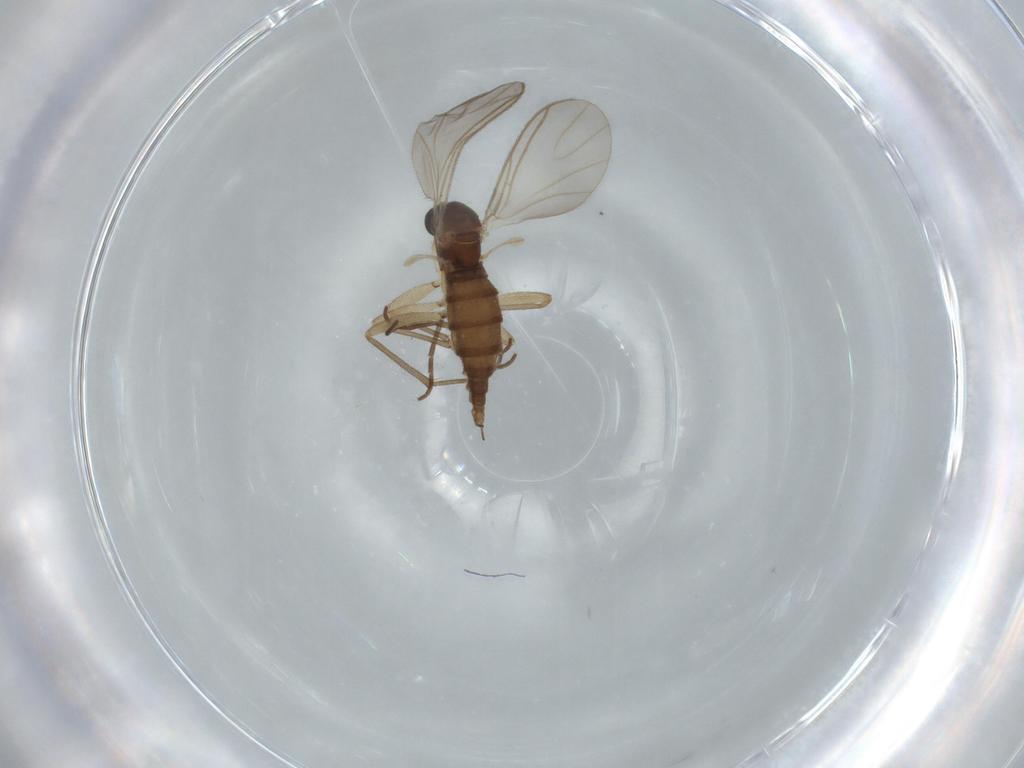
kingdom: Animalia
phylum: Arthropoda
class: Insecta
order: Diptera
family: Sciaridae
